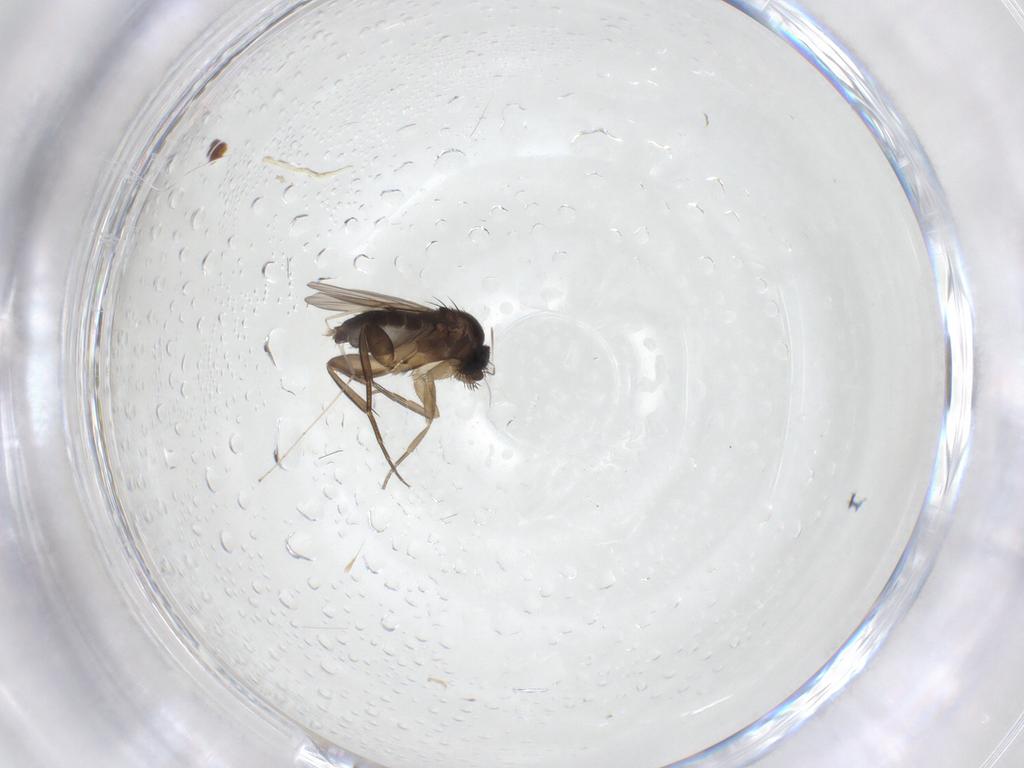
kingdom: Animalia
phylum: Arthropoda
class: Insecta
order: Diptera
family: Phoridae
